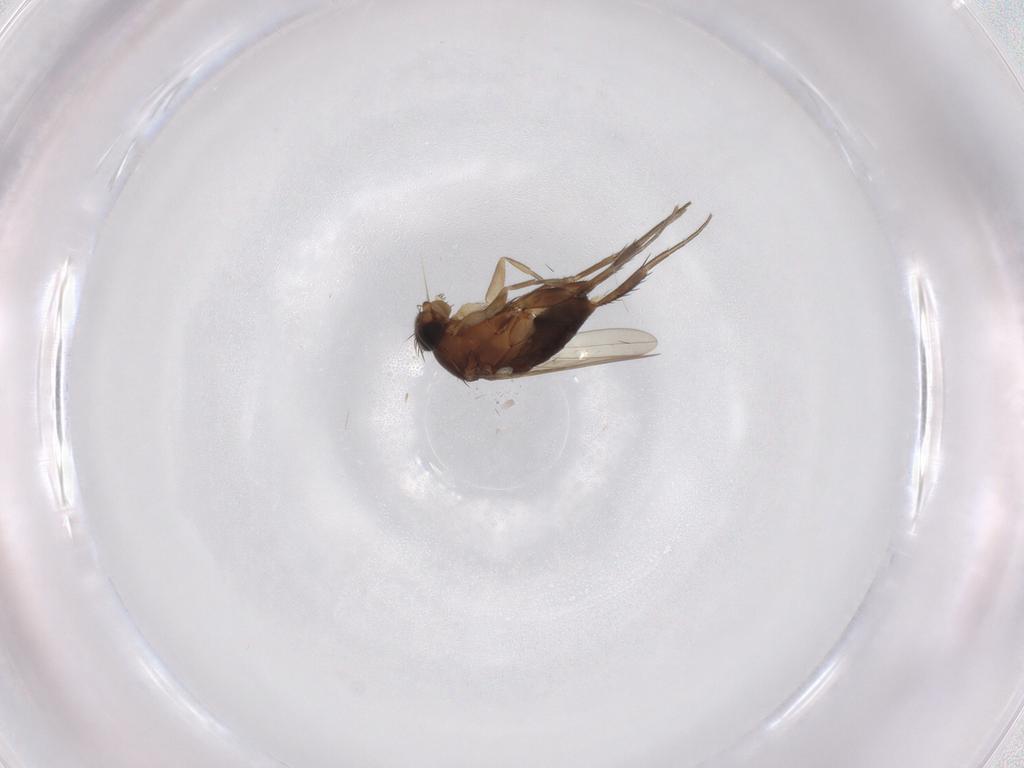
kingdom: Animalia
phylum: Arthropoda
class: Insecta
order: Diptera
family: Phoridae
